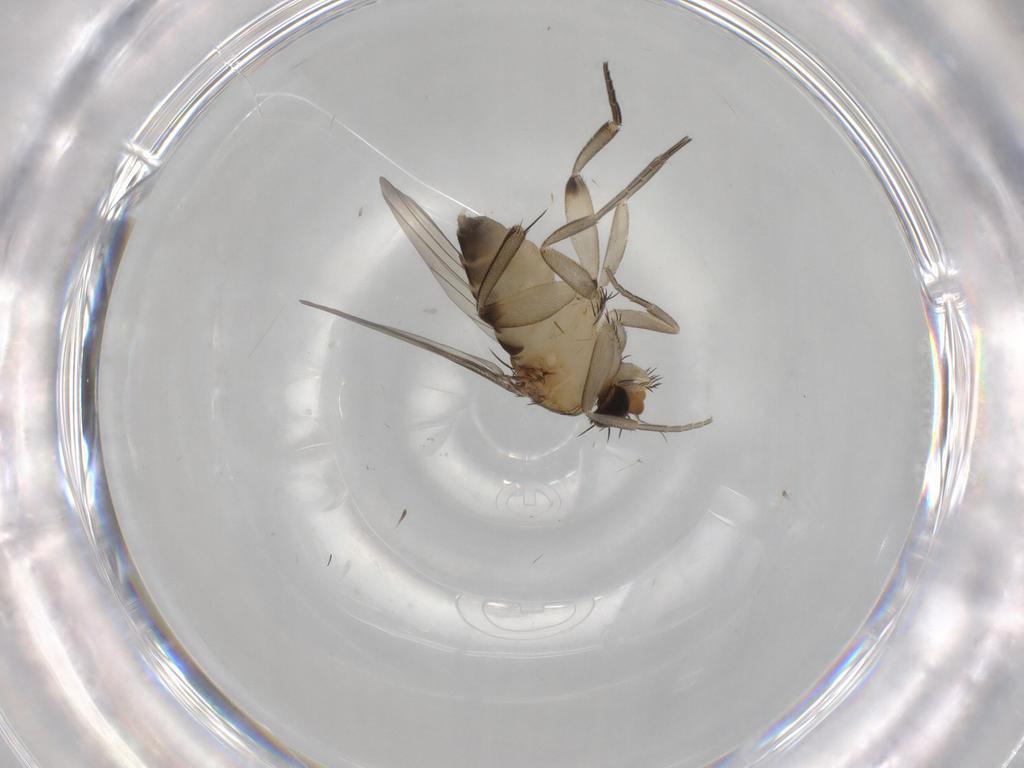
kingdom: Animalia
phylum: Arthropoda
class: Insecta
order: Diptera
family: Phoridae
